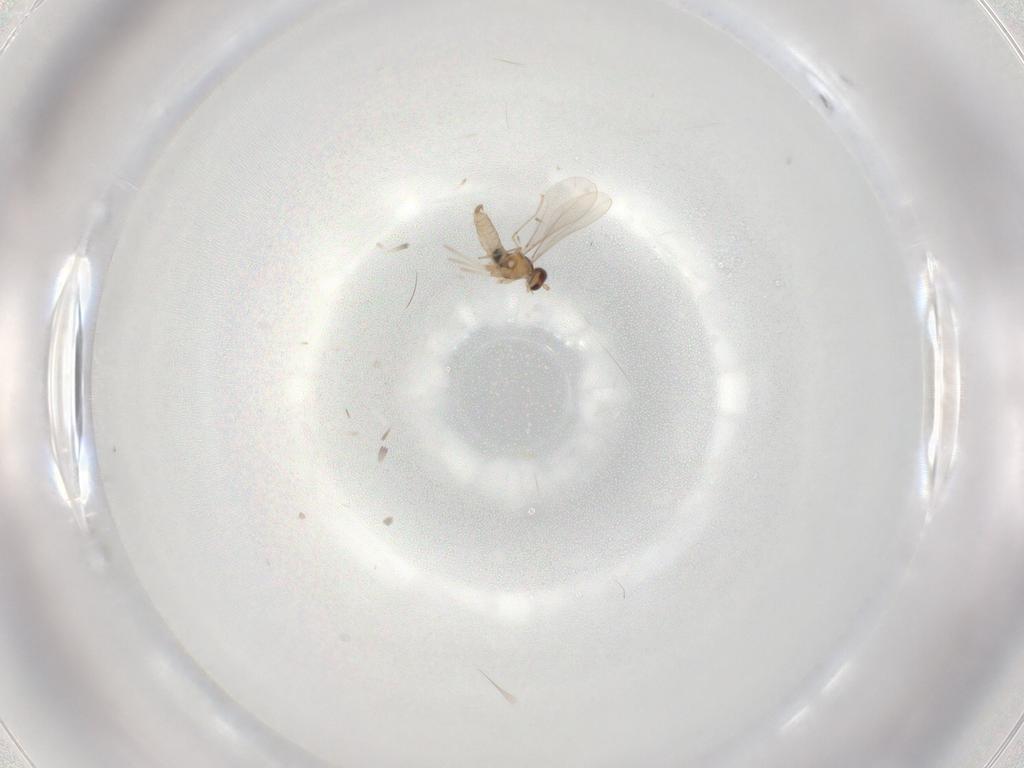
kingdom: Animalia
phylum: Arthropoda
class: Insecta
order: Diptera
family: Cecidomyiidae
